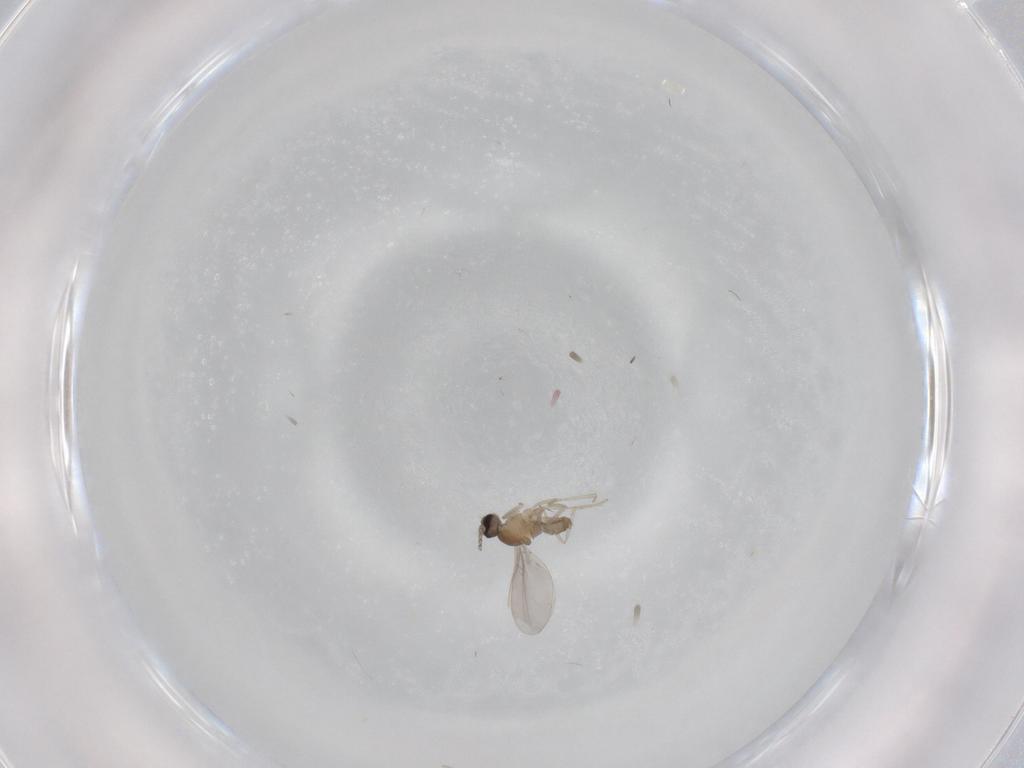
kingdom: Animalia
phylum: Arthropoda
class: Insecta
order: Diptera
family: Cecidomyiidae
